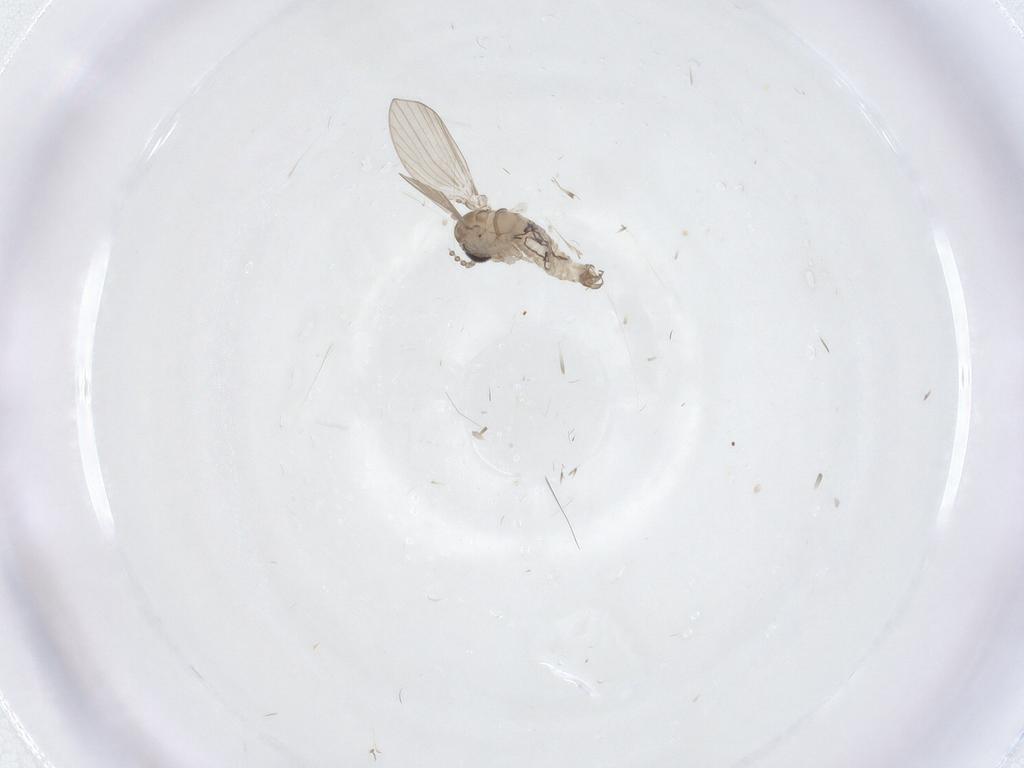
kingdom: Animalia
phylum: Arthropoda
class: Insecta
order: Diptera
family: Psychodidae
